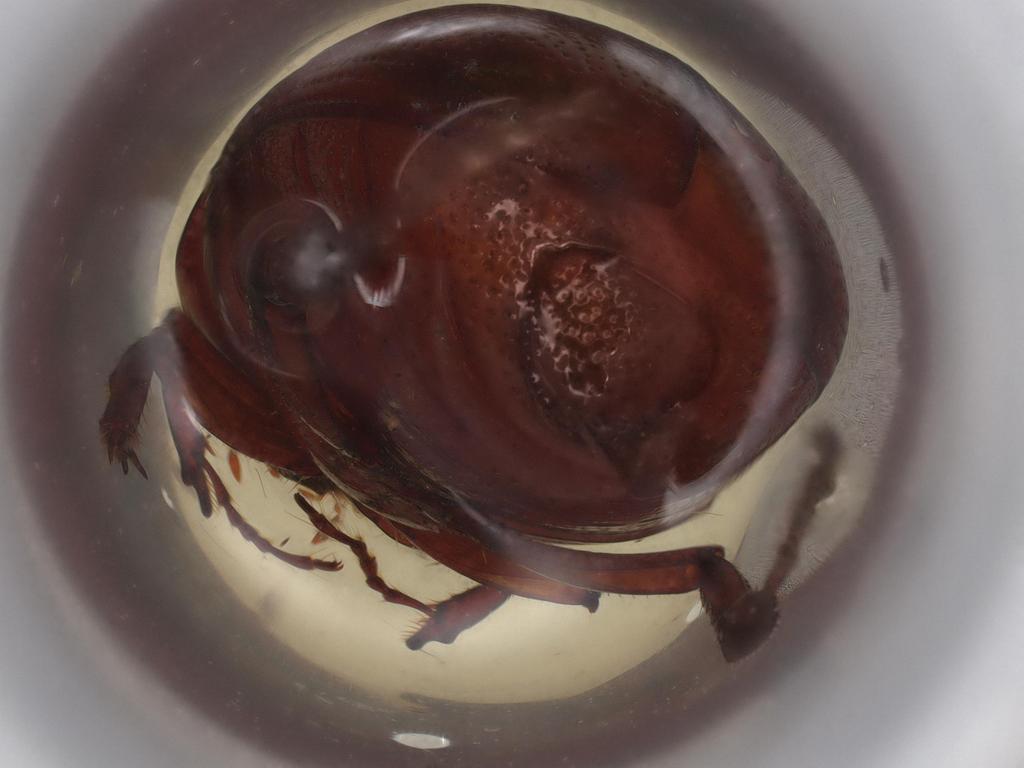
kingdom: Animalia
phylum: Arthropoda
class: Insecta
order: Coleoptera
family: Scarabaeidae
